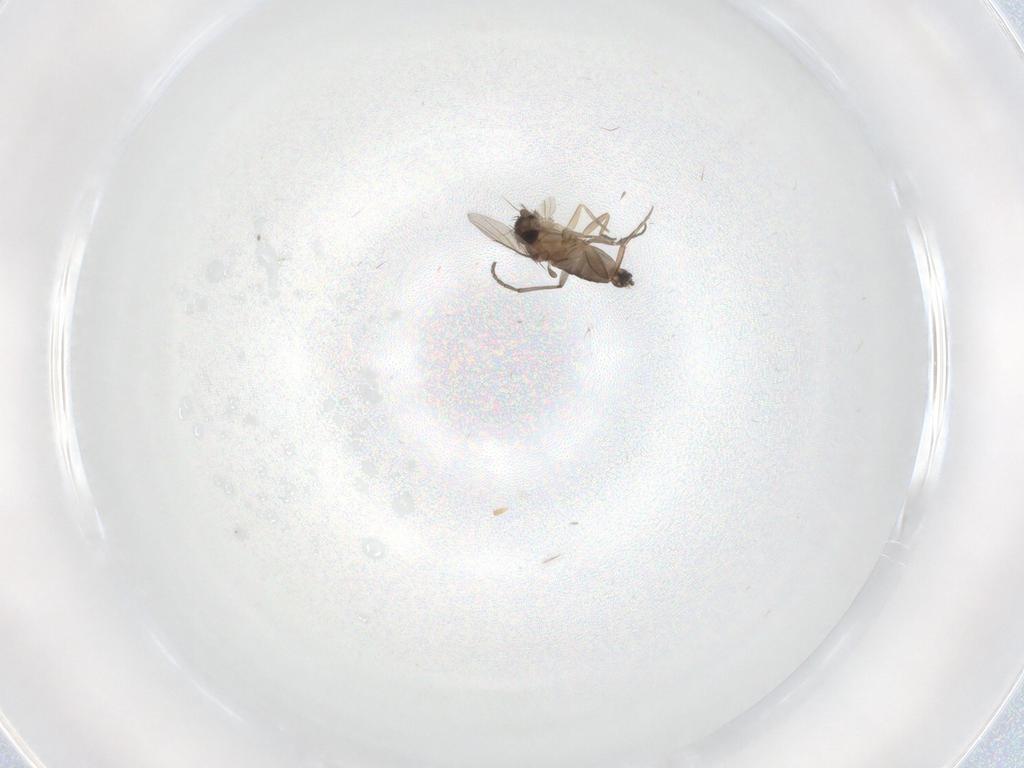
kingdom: Animalia
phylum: Arthropoda
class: Insecta
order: Diptera
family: Phoridae
